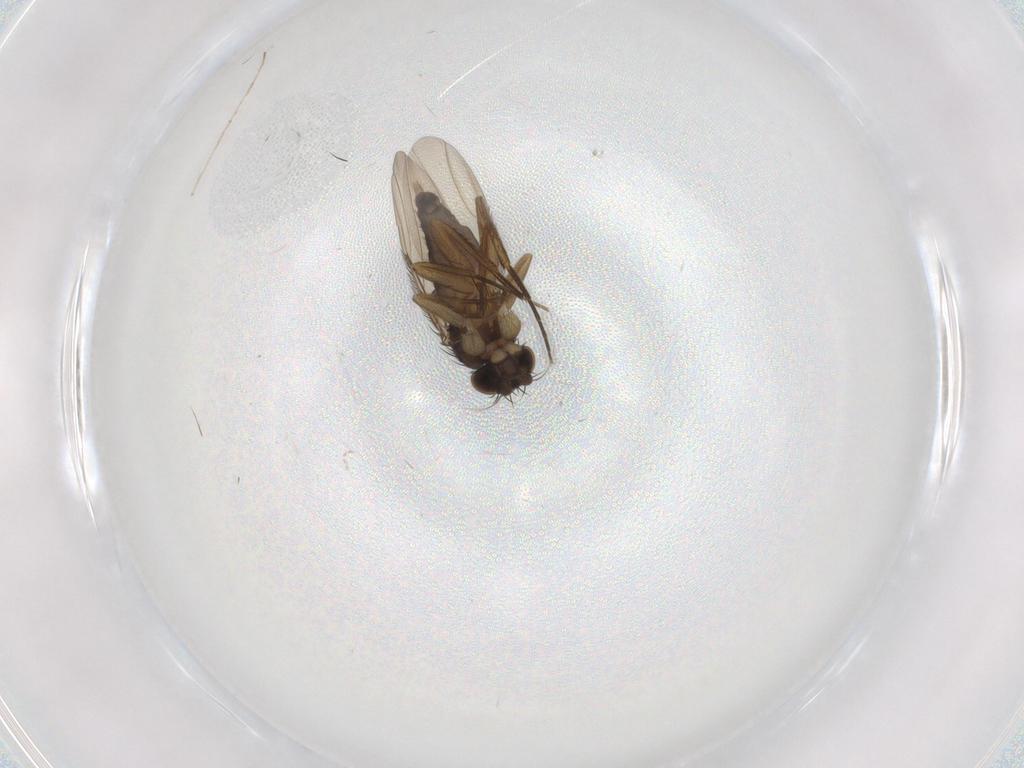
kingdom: Animalia
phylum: Arthropoda
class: Insecta
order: Diptera
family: Phoridae
